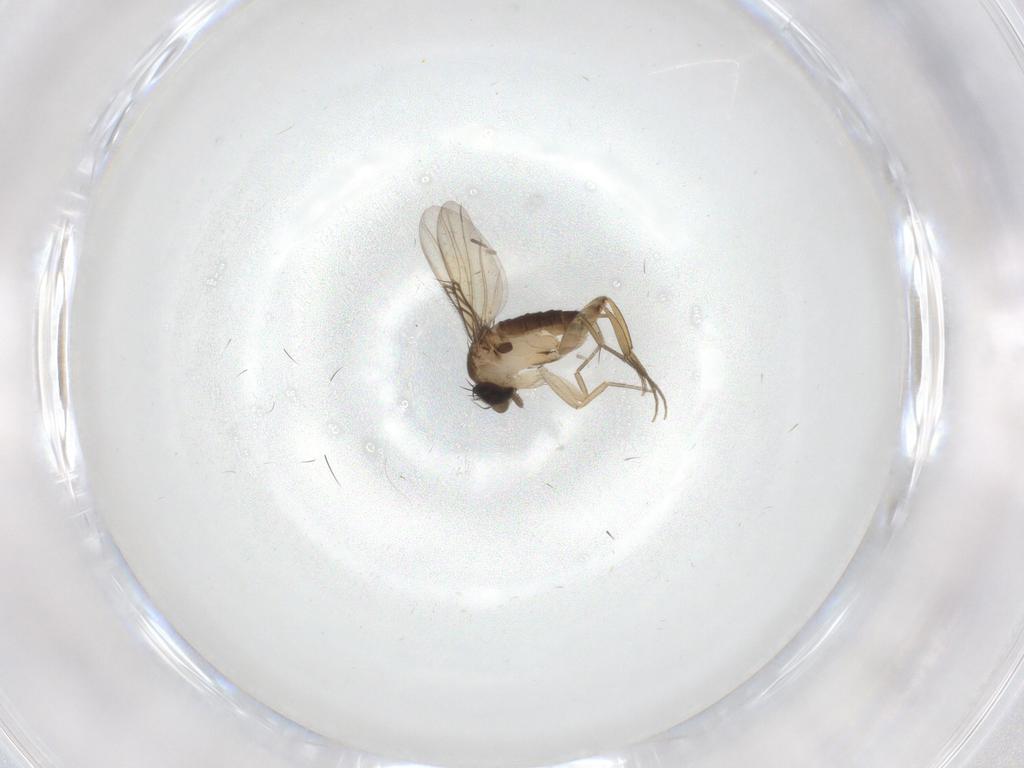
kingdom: Animalia
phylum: Arthropoda
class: Insecta
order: Diptera
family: Phoridae
